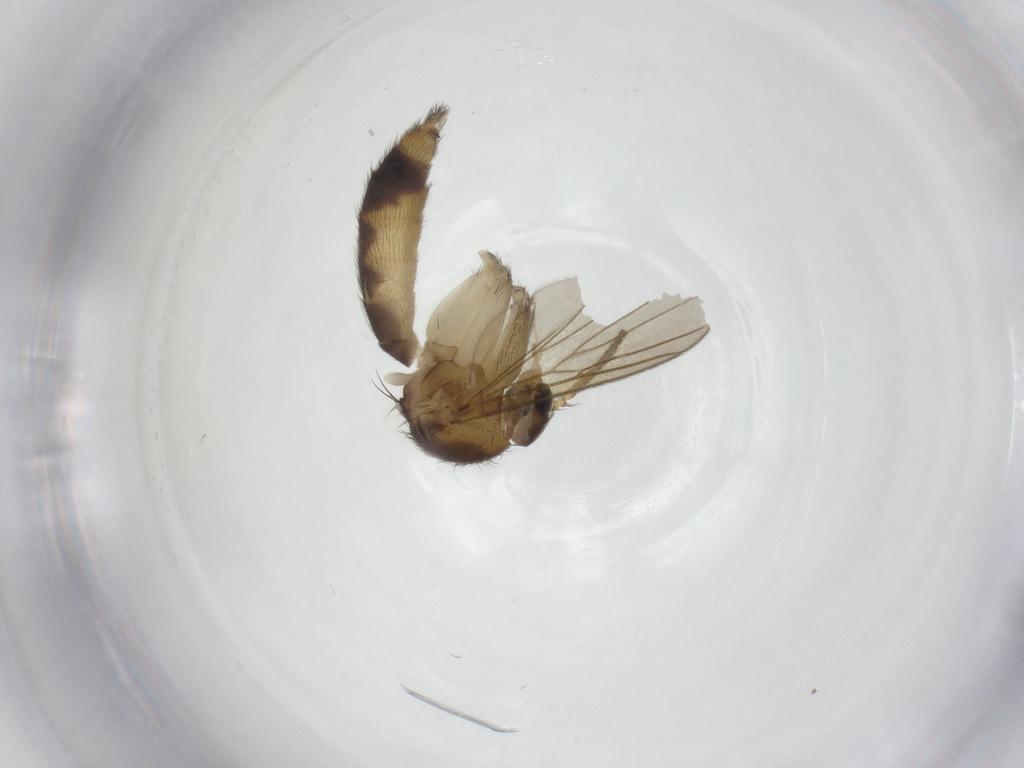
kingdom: Animalia
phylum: Arthropoda
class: Insecta
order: Diptera
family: Mycetophilidae
